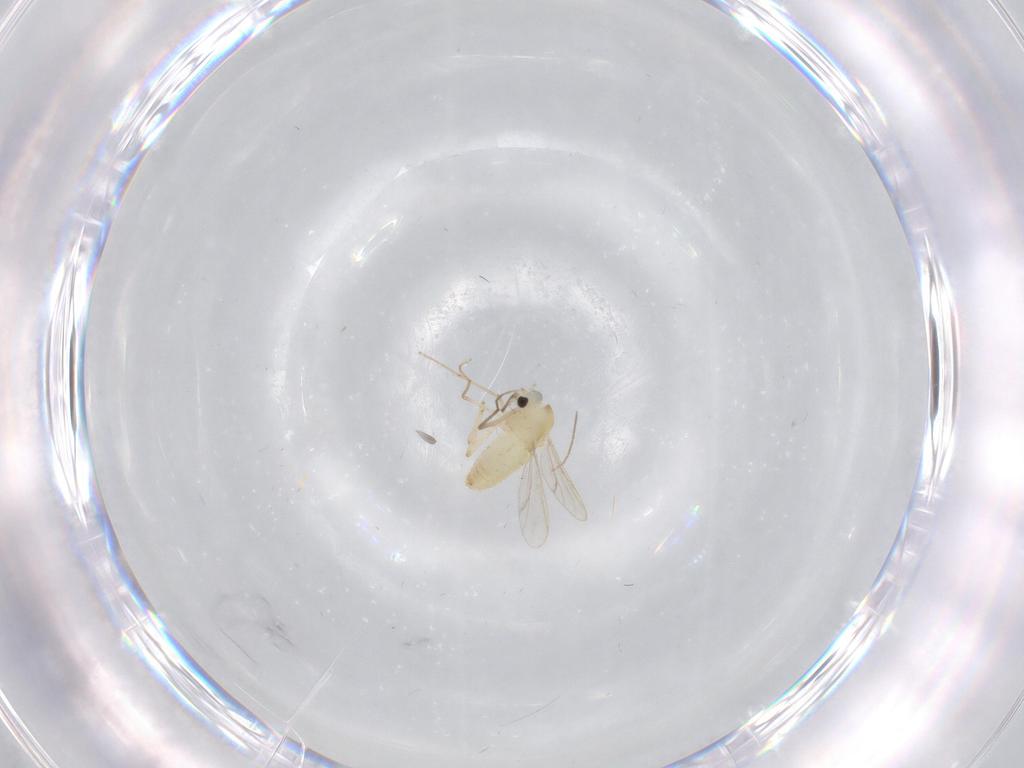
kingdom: Animalia
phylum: Arthropoda
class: Insecta
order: Diptera
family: Chironomidae
